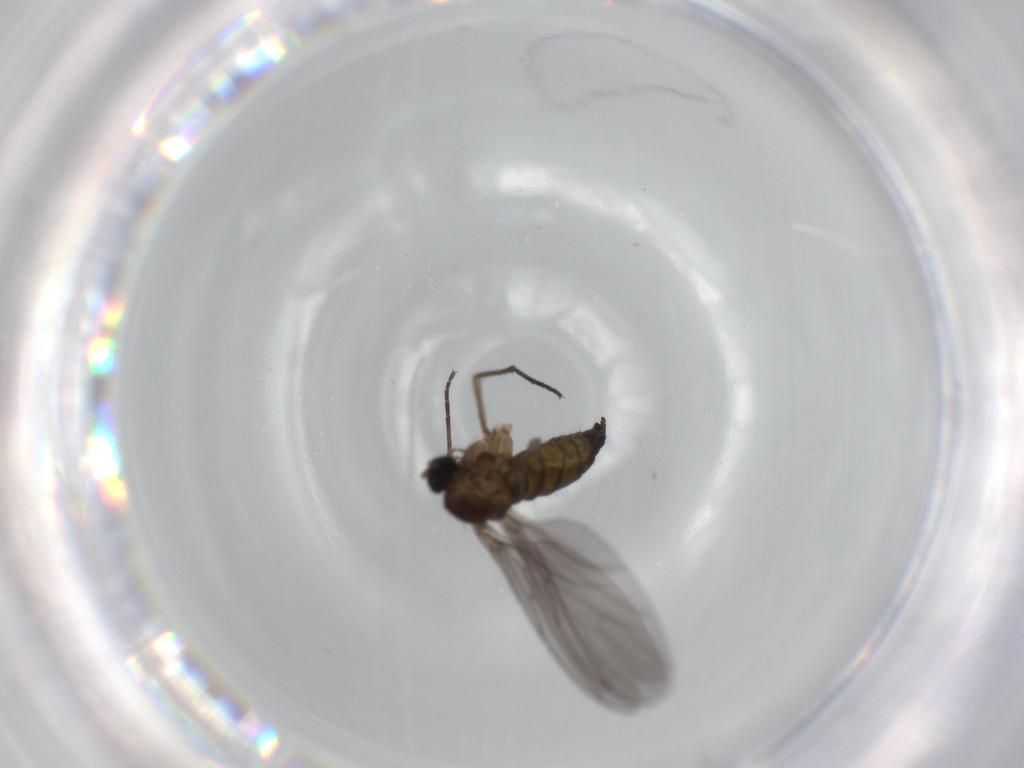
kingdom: Animalia
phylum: Arthropoda
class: Insecta
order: Diptera
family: Sciaridae
